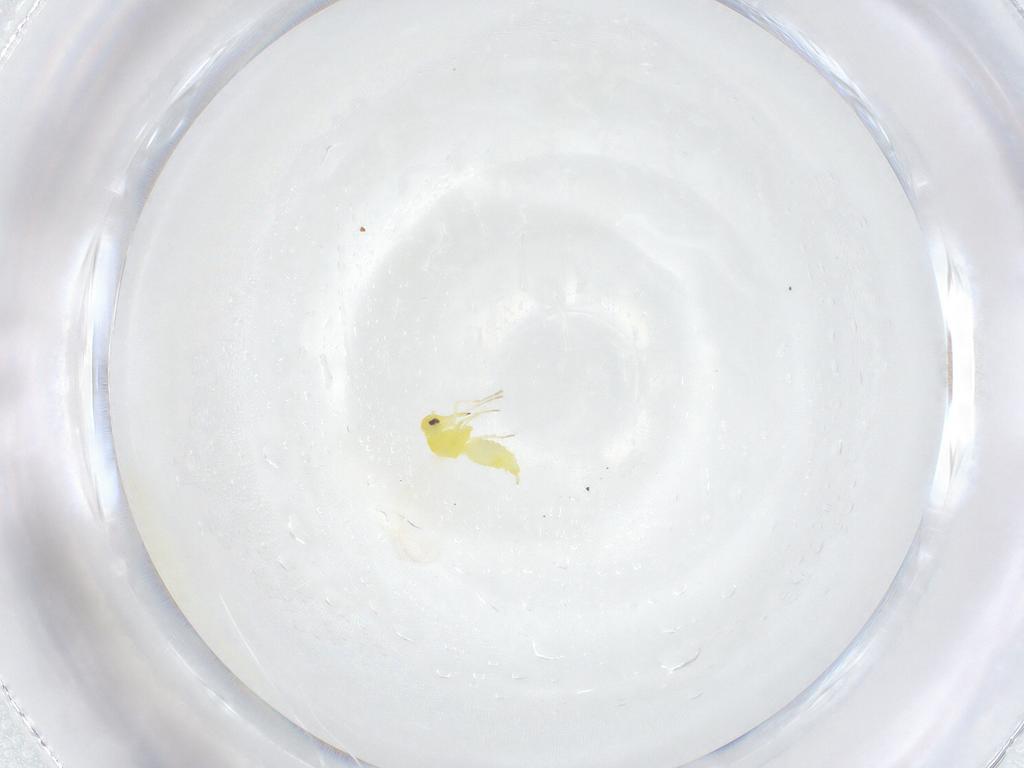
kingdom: Animalia
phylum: Arthropoda
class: Insecta
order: Hemiptera
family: Aleyrodidae
